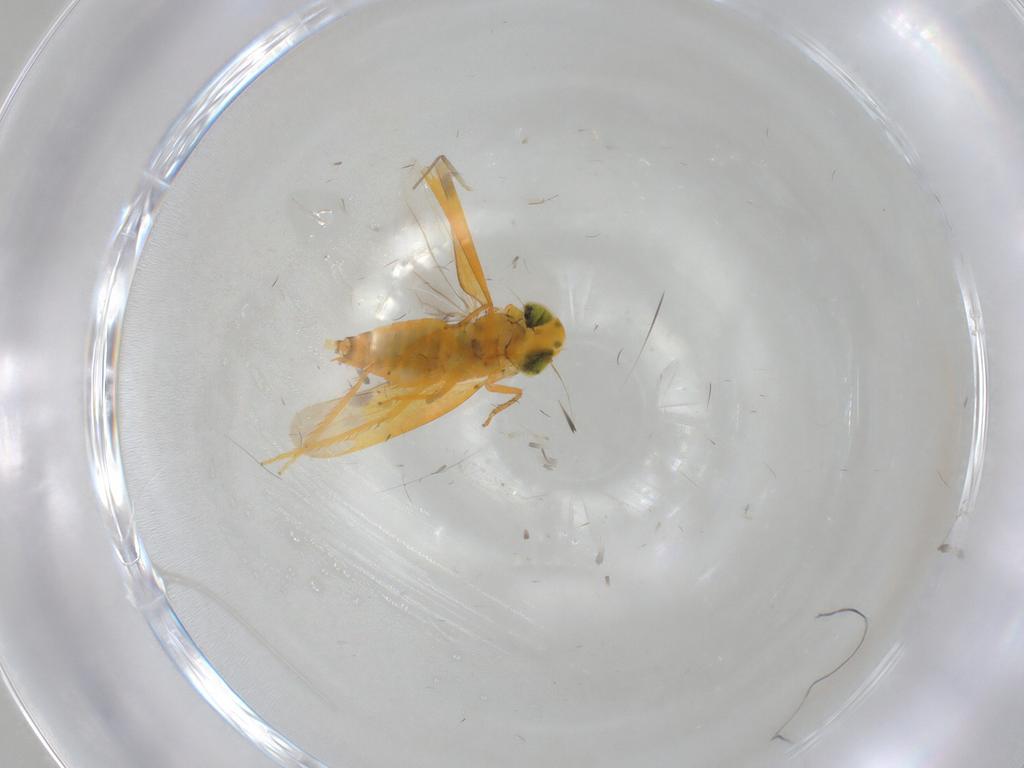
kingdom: Animalia
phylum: Arthropoda
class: Insecta
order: Hemiptera
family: Cicadellidae
